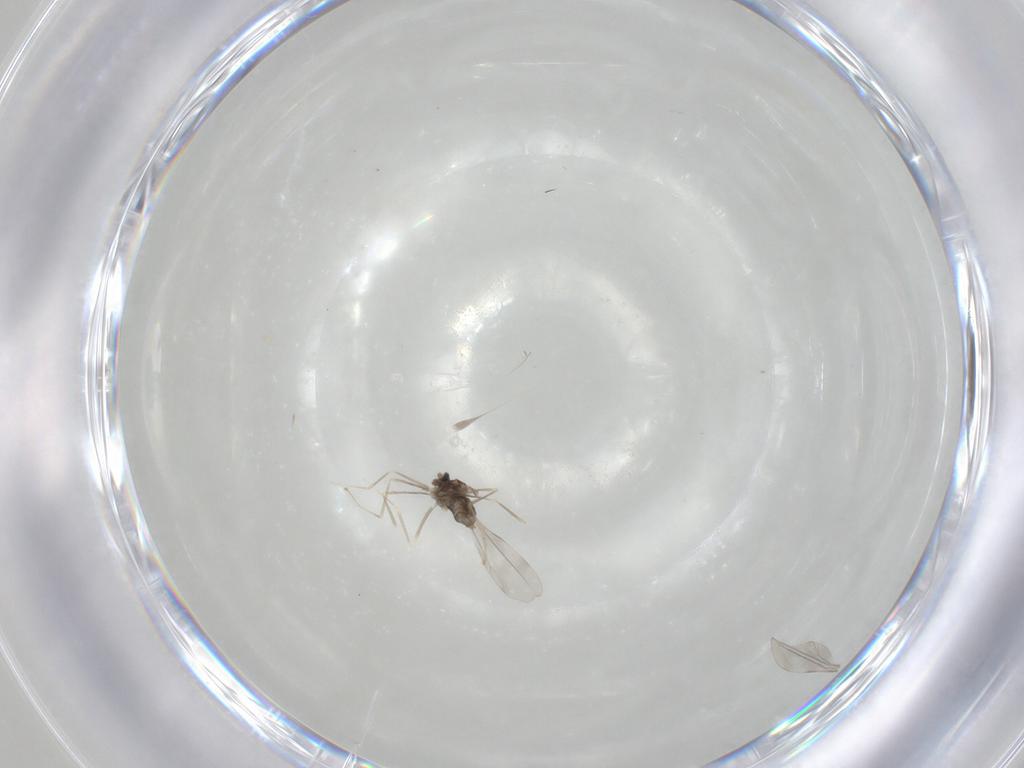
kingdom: Animalia
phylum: Arthropoda
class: Insecta
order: Diptera
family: Cecidomyiidae
